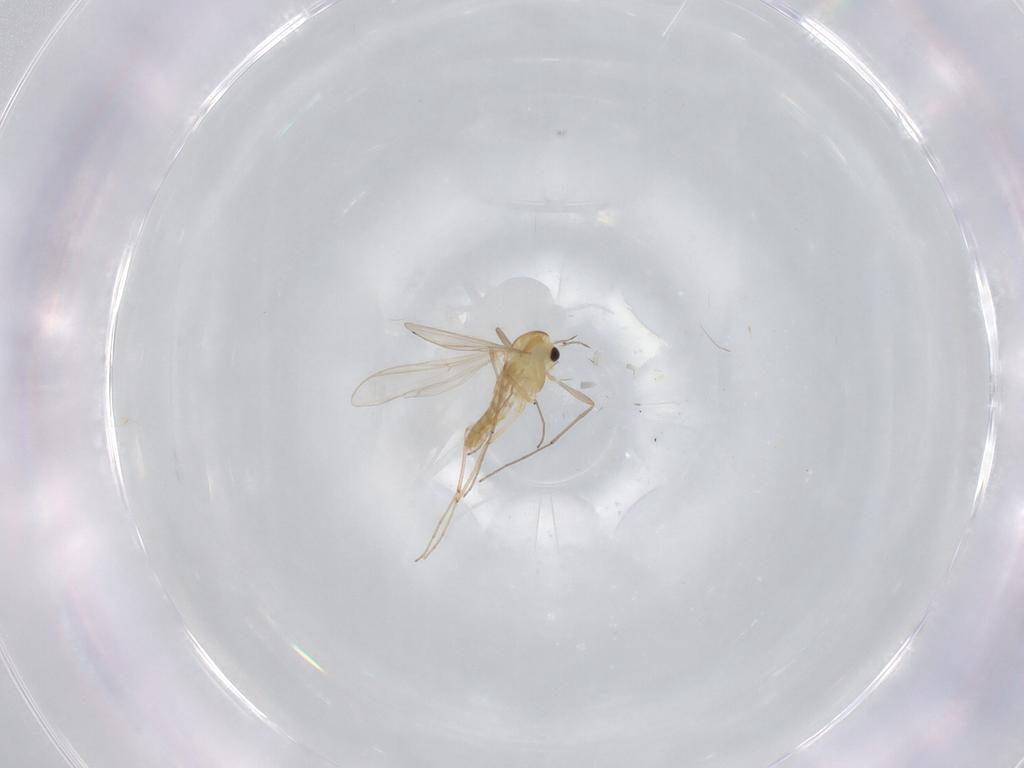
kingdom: Animalia
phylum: Arthropoda
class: Insecta
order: Diptera
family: Chironomidae
